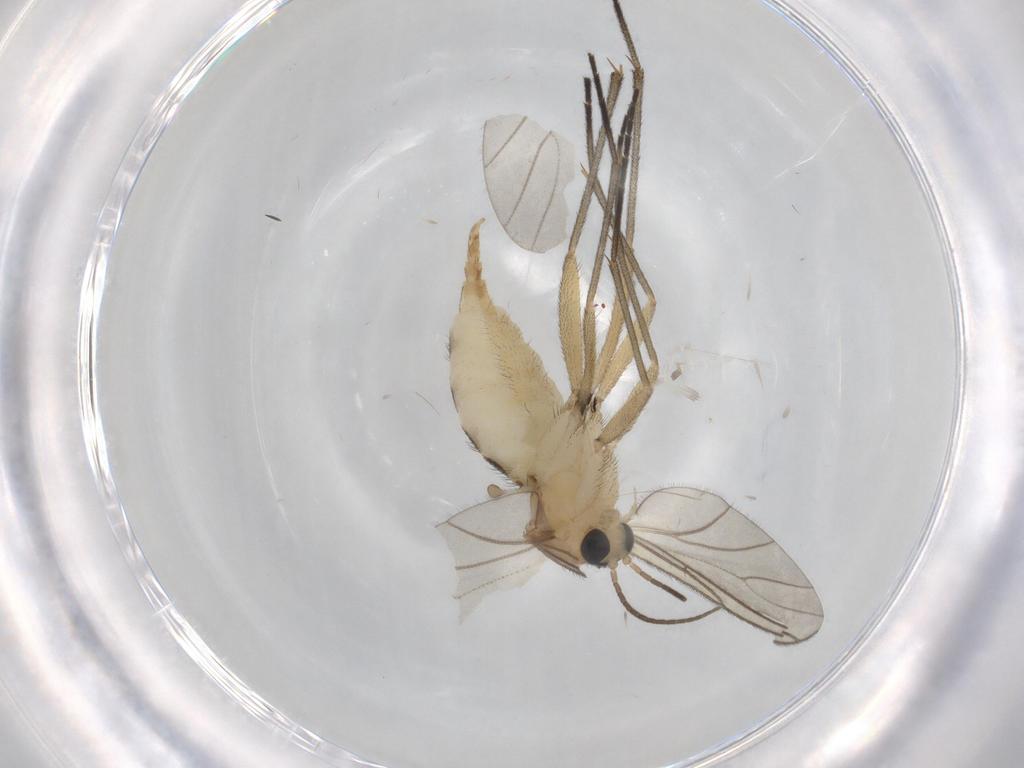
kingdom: Animalia
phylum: Arthropoda
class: Insecta
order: Diptera
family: Sciaridae
